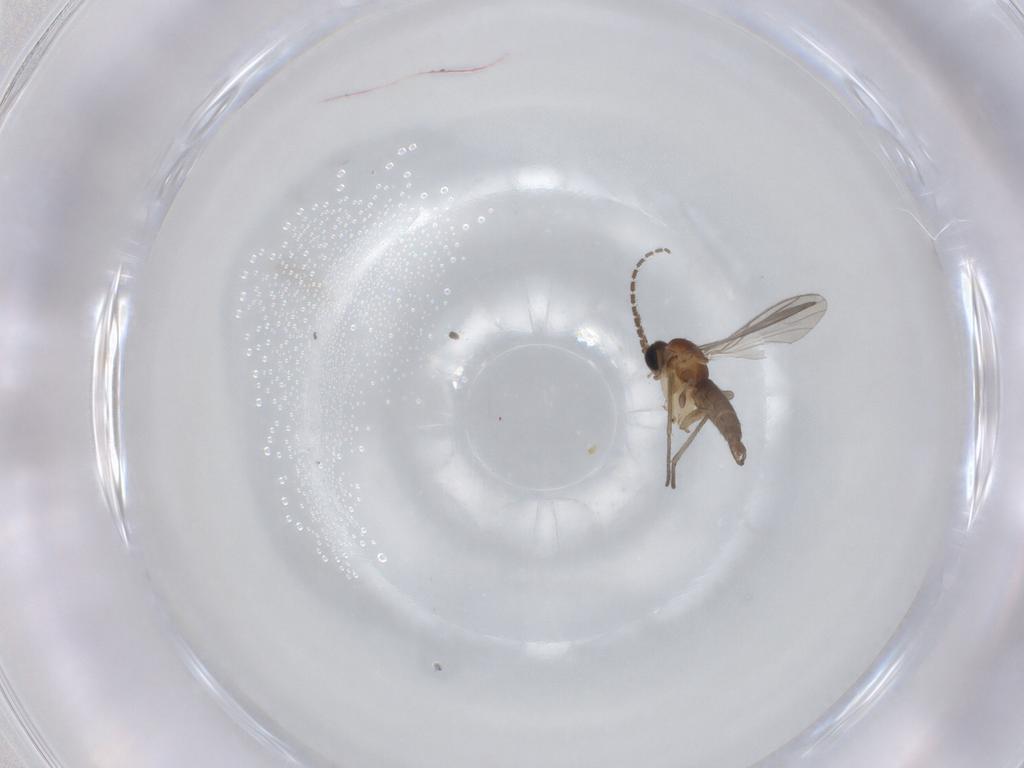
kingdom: Animalia
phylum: Arthropoda
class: Insecta
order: Diptera
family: Sciaridae
